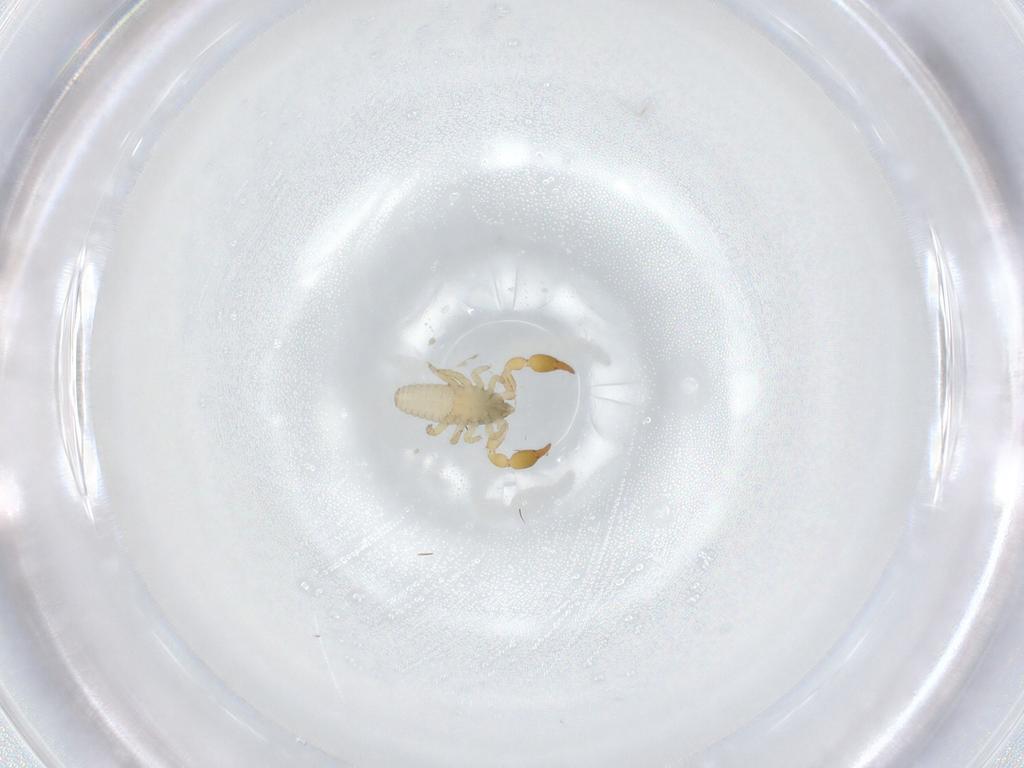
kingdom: Animalia
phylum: Arthropoda
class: Arachnida
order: Pseudoscorpiones
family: Chernetidae
